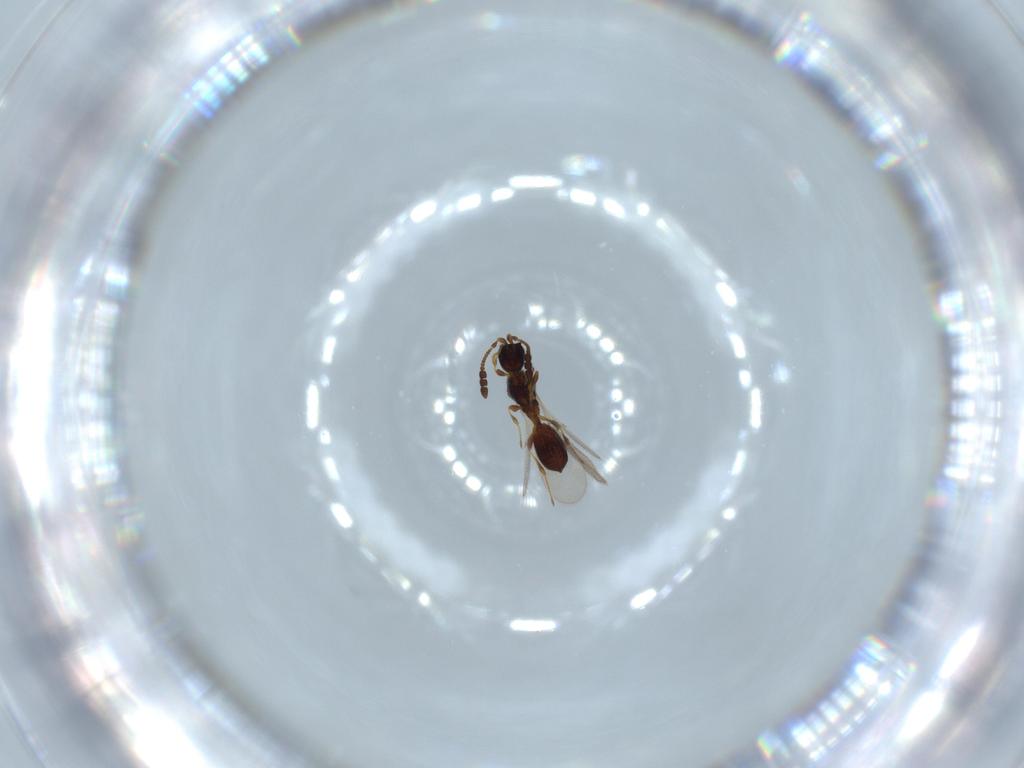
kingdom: Animalia
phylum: Arthropoda
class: Insecta
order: Hymenoptera
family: Diapriidae
